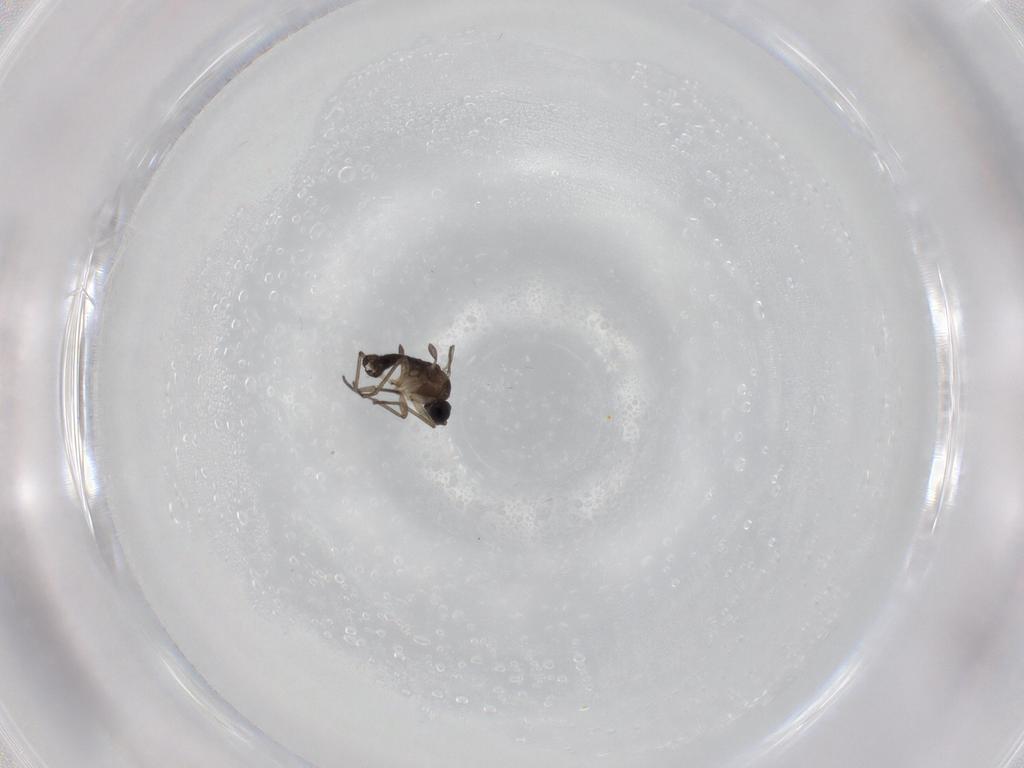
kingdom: Animalia
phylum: Arthropoda
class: Insecta
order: Diptera
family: Sciaridae
